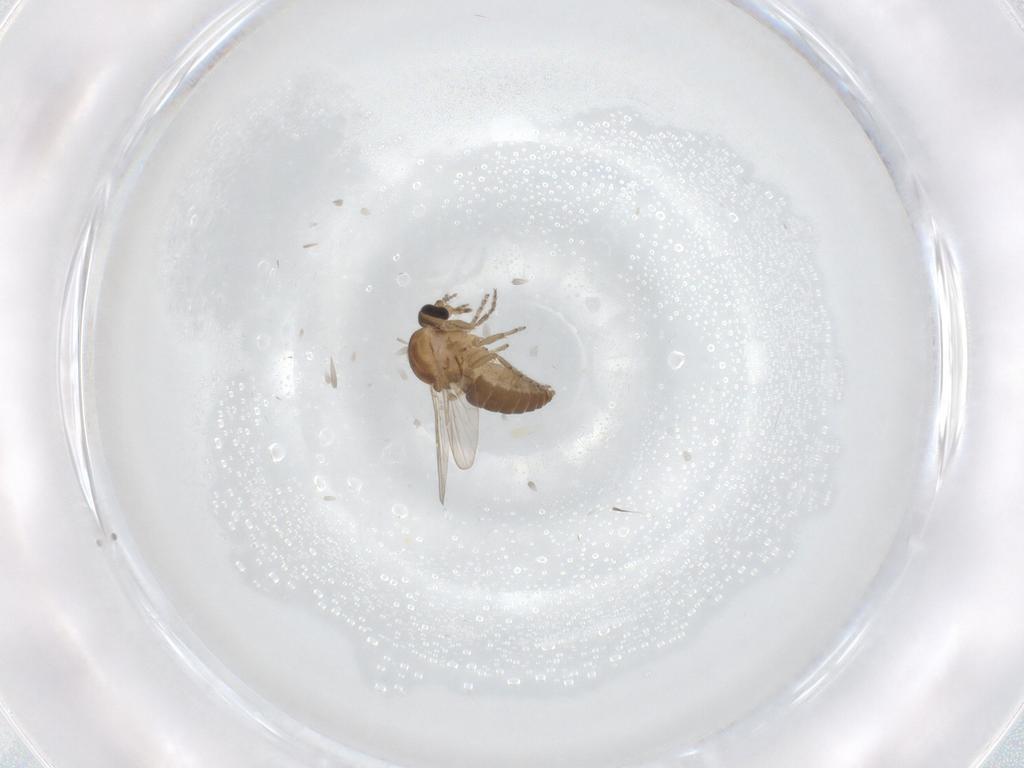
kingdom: Animalia
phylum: Arthropoda
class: Insecta
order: Diptera
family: Ceratopogonidae
